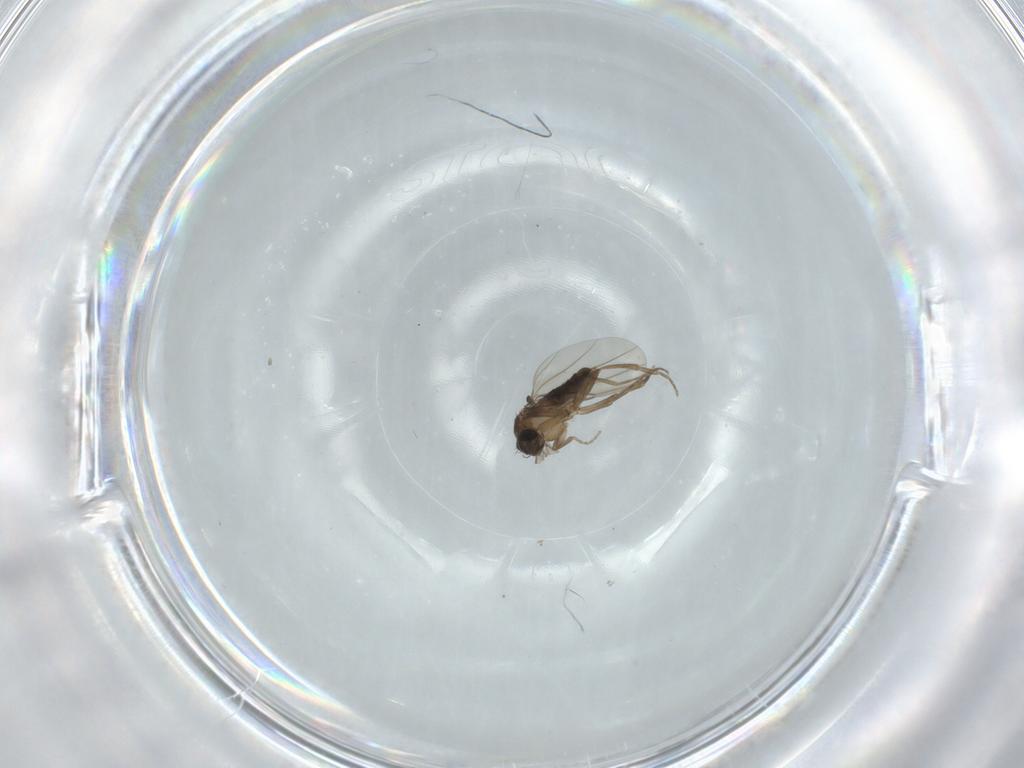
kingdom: Animalia
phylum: Arthropoda
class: Insecta
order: Diptera
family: Phoridae
